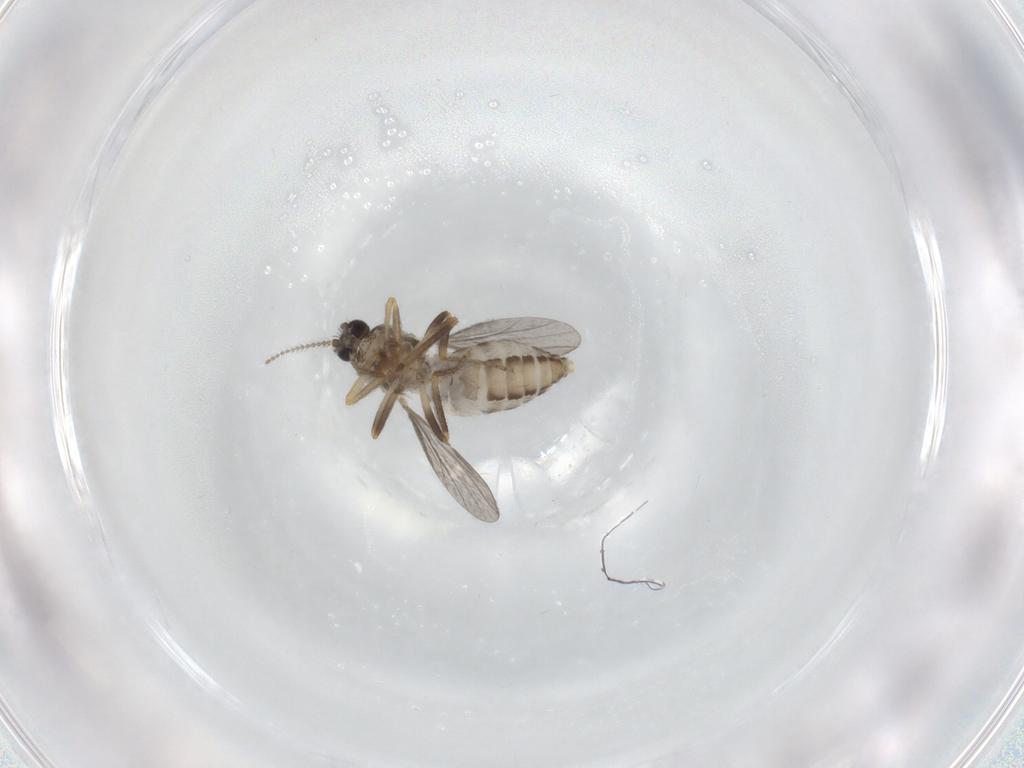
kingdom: Animalia
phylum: Arthropoda
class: Insecta
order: Diptera
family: Ceratopogonidae
